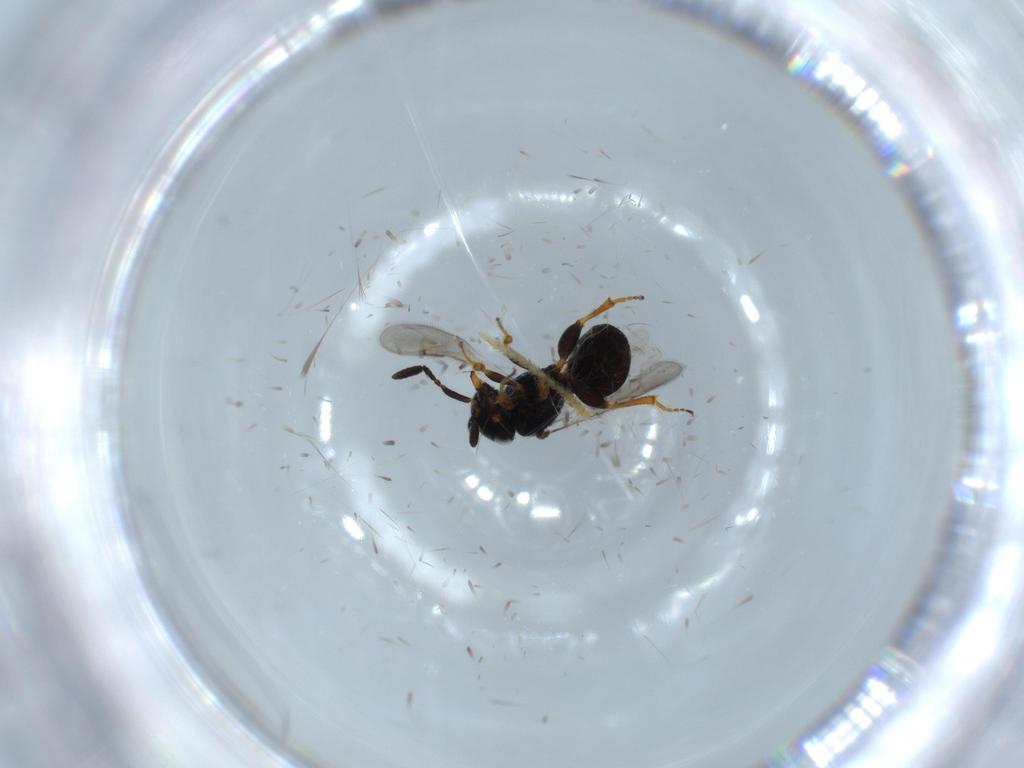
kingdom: Animalia
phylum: Arthropoda
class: Insecta
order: Hymenoptera
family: Scelionidae
